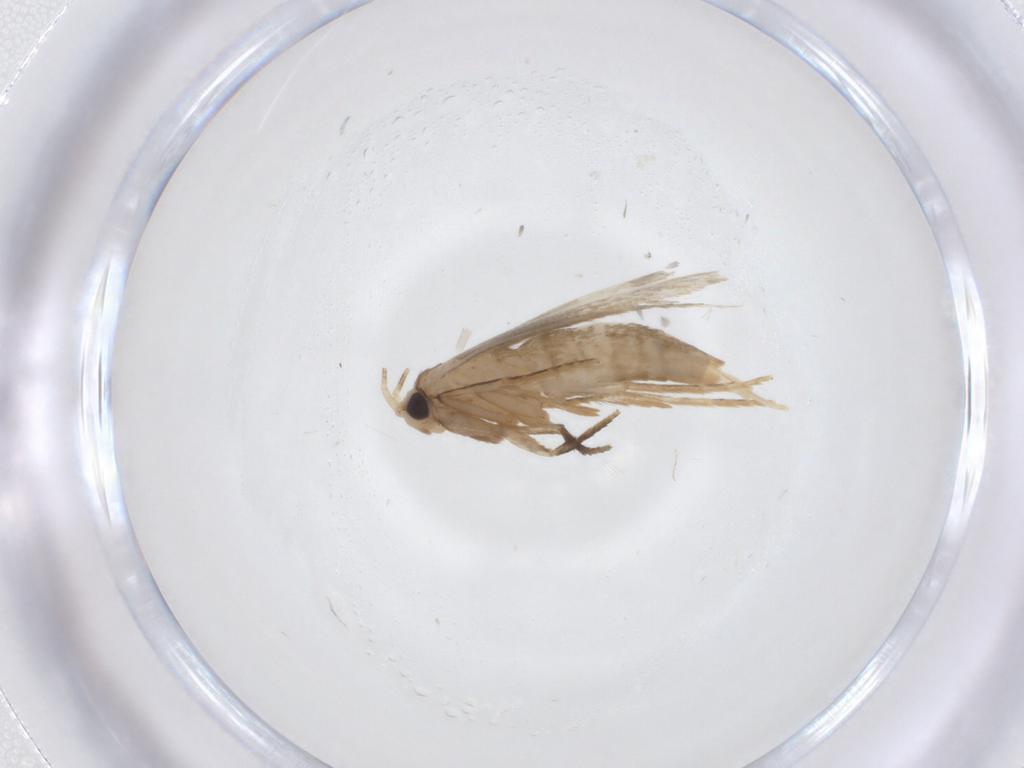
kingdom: Animalia
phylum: Arthropoda
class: Insecta
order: Lepidoptera
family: Tineidae
